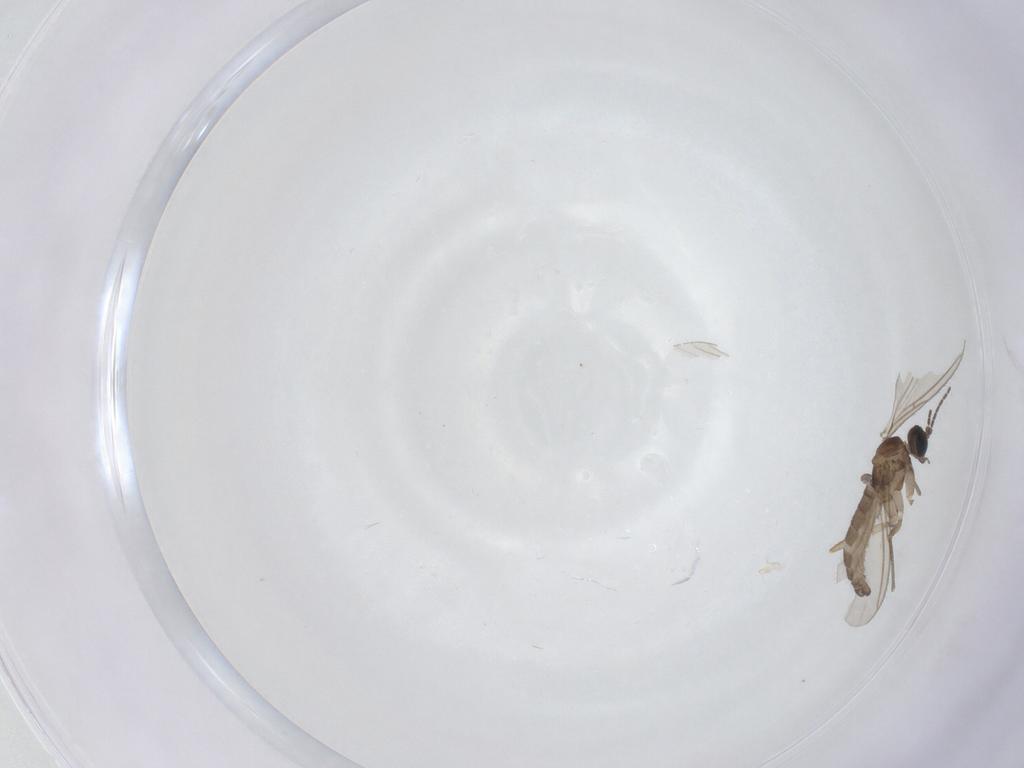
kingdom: Animalia
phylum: Arthropoda
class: Insecta
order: Diptera
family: Sciaridae
